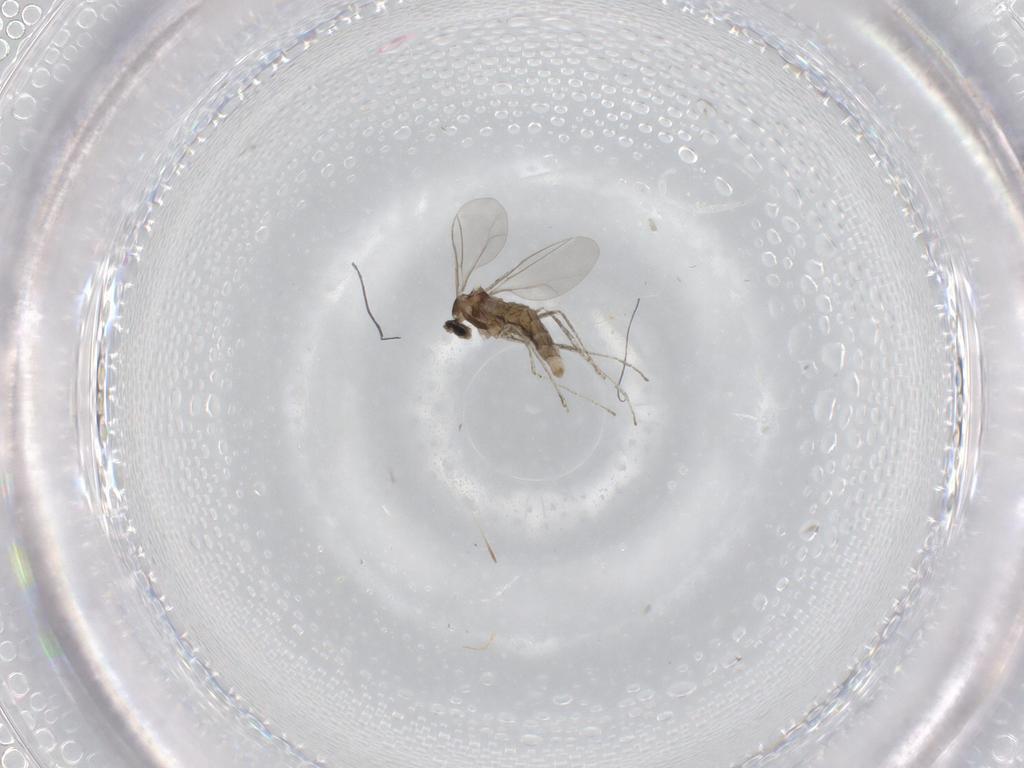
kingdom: Animalia
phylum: Arthropoda
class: Insecta
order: Diptera
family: Cecidomyiidae
